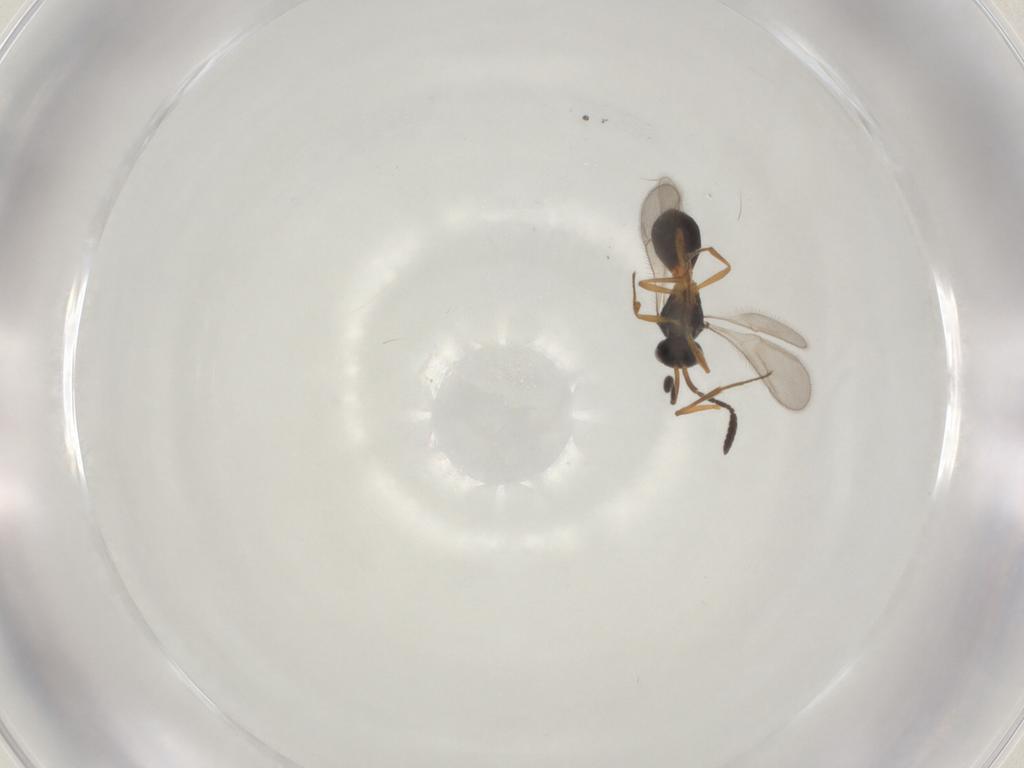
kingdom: Animalia
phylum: Arthropoda
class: Insecta
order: Hymenoptera
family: Scelionidae
